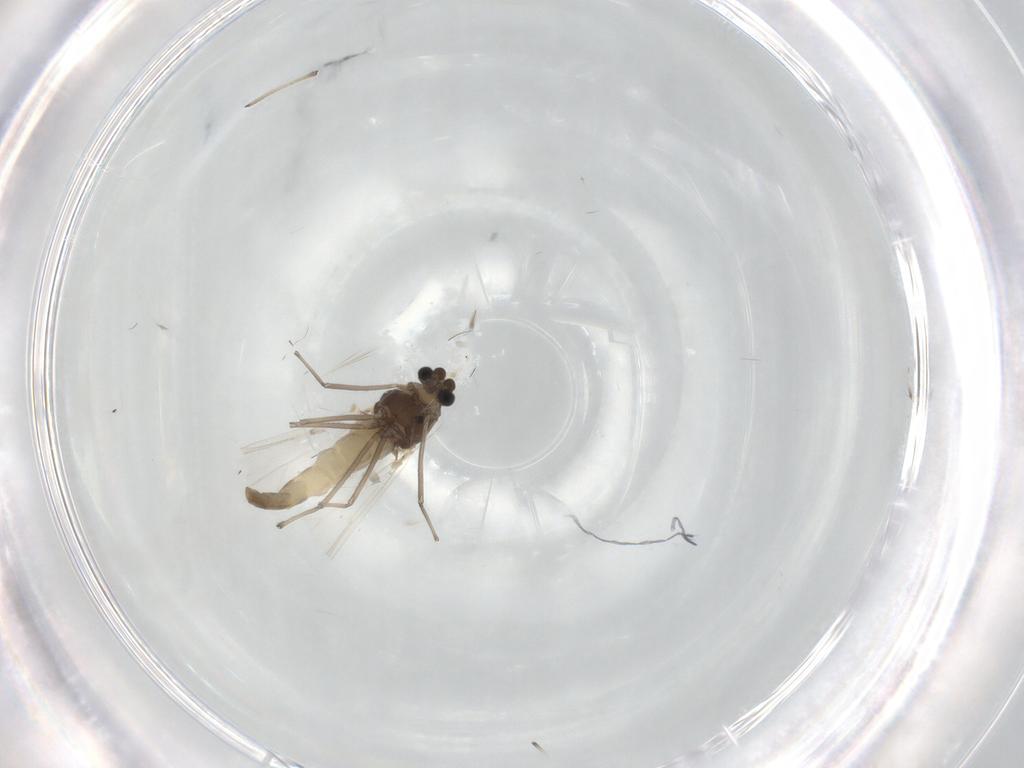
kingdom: Animalia
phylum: Arthropoda
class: Insecta
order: Diptera
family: Chironomidae
